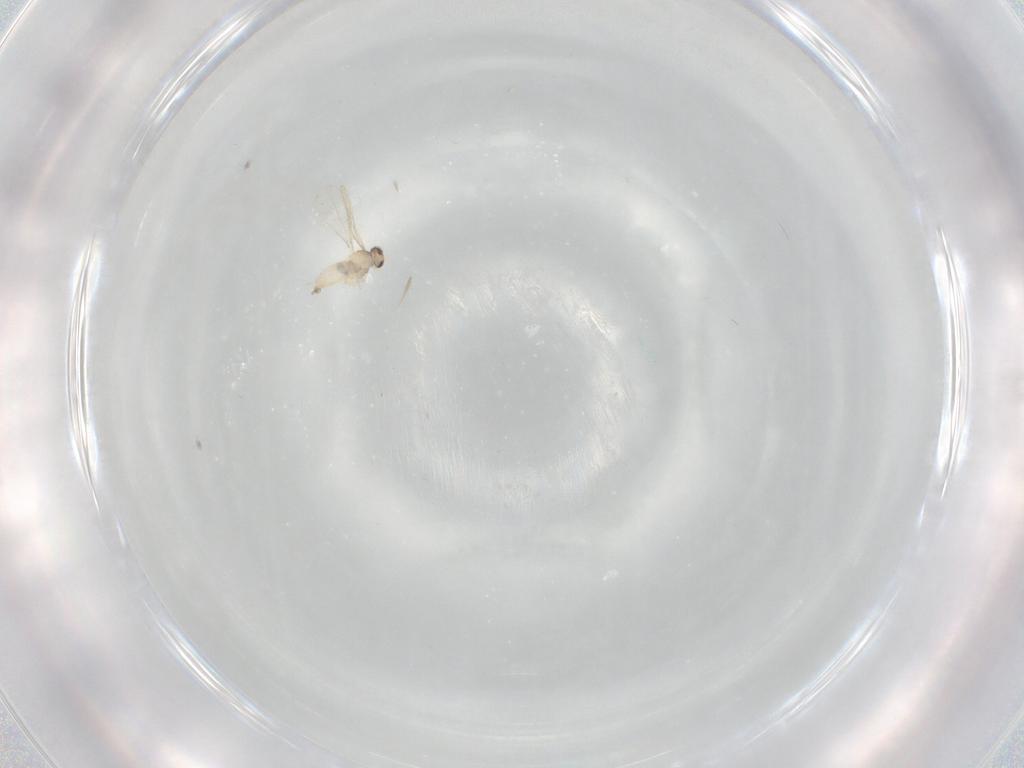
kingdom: Animalia
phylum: Arthropoda
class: Insecta
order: Diptera
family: Cecidomyiidae
